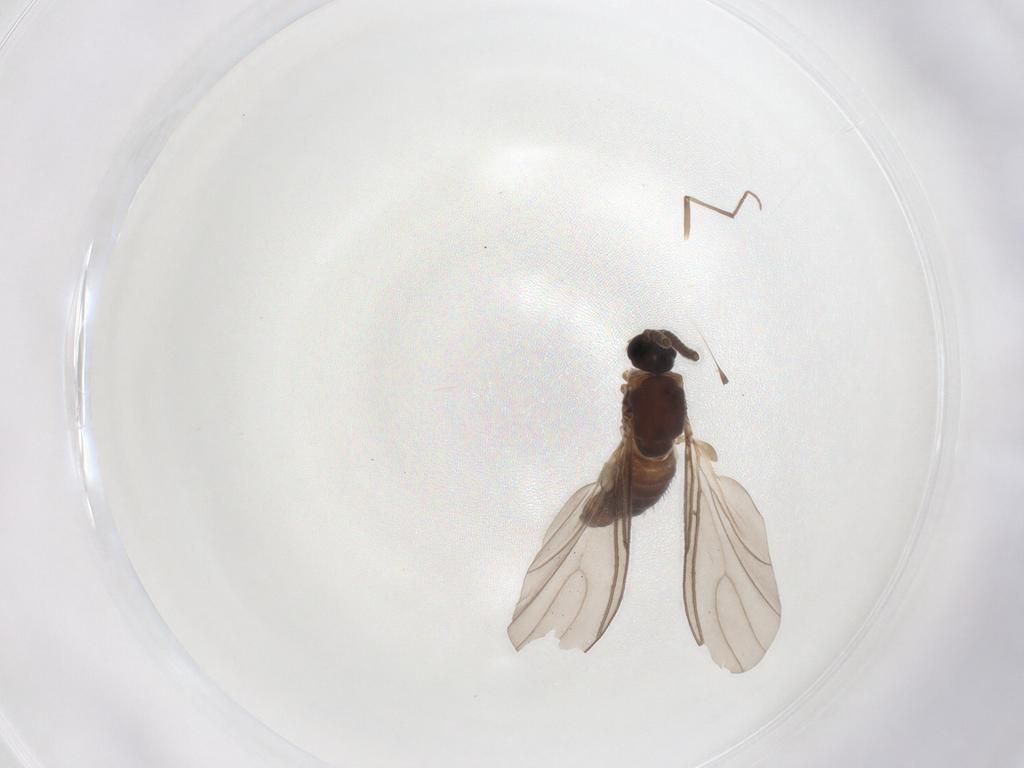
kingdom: Animalia
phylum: Arthropoda
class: Insecta
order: Diptera
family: Sciaridae
